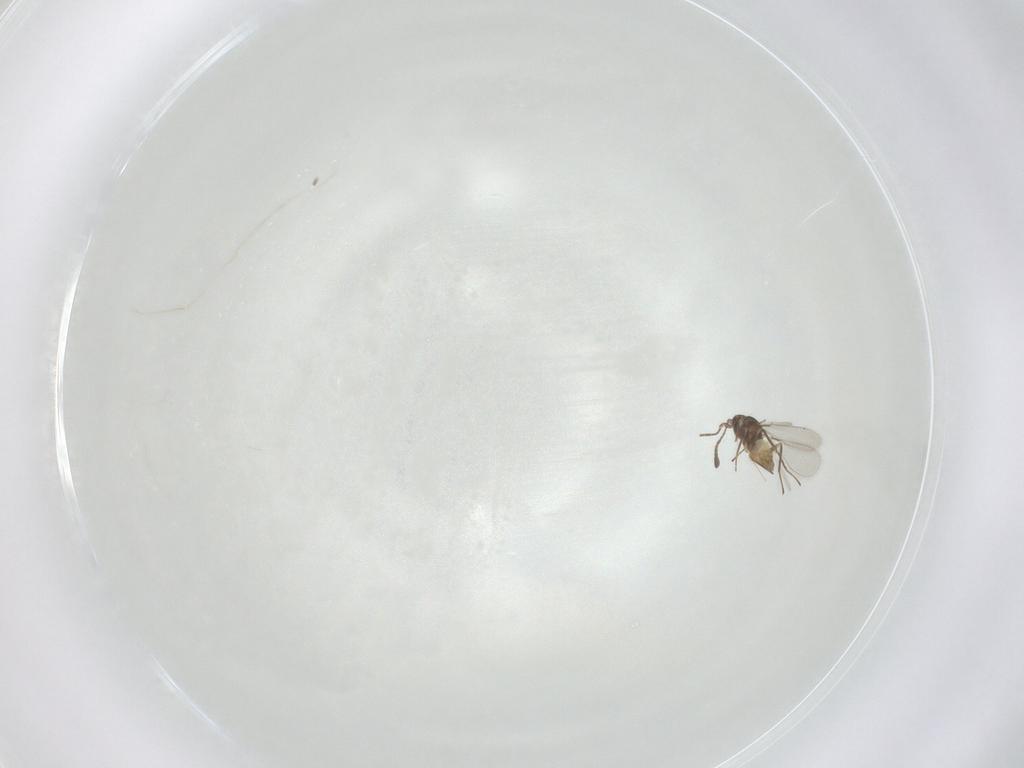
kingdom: Animalia
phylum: Arthropoda
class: Insecta
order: Hymenoptera
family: Mymaridae
